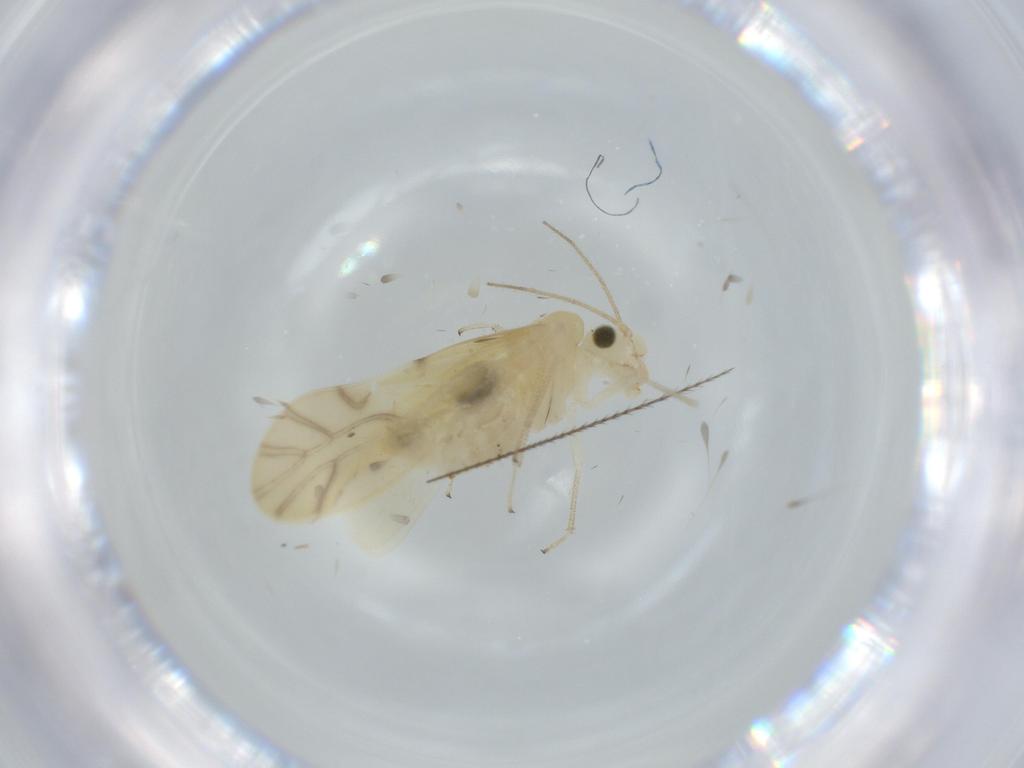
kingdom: Animalia
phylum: Arthropoda
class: Insecta
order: Psocodea
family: Caeciliusidae
